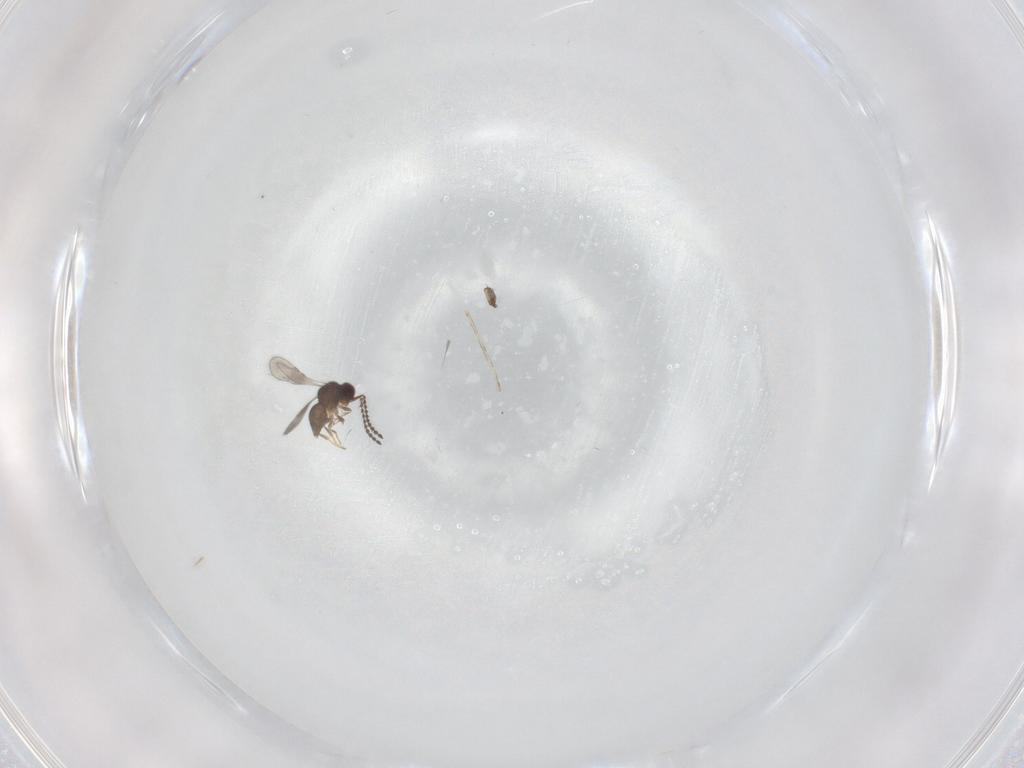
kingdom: Animalia
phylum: Arthropoda
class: Insecta
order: Hymenoptera
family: Ceraphronidae
